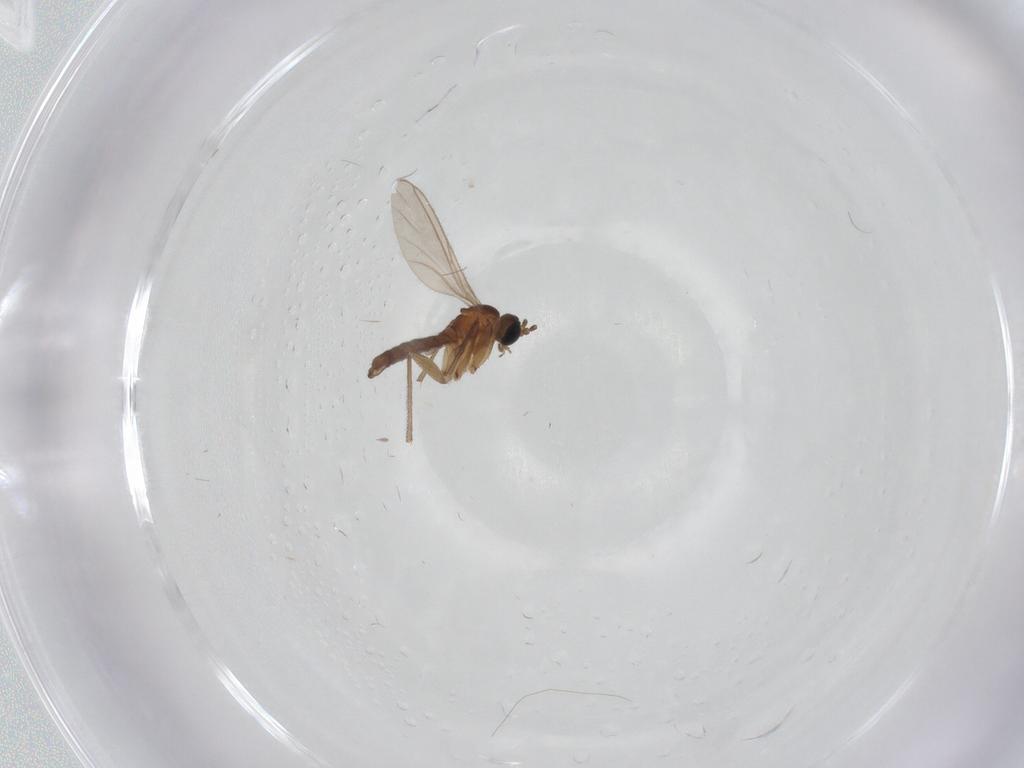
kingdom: Animalia
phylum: Arthropoda
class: Insecta
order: Diptera
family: Sciaridae
